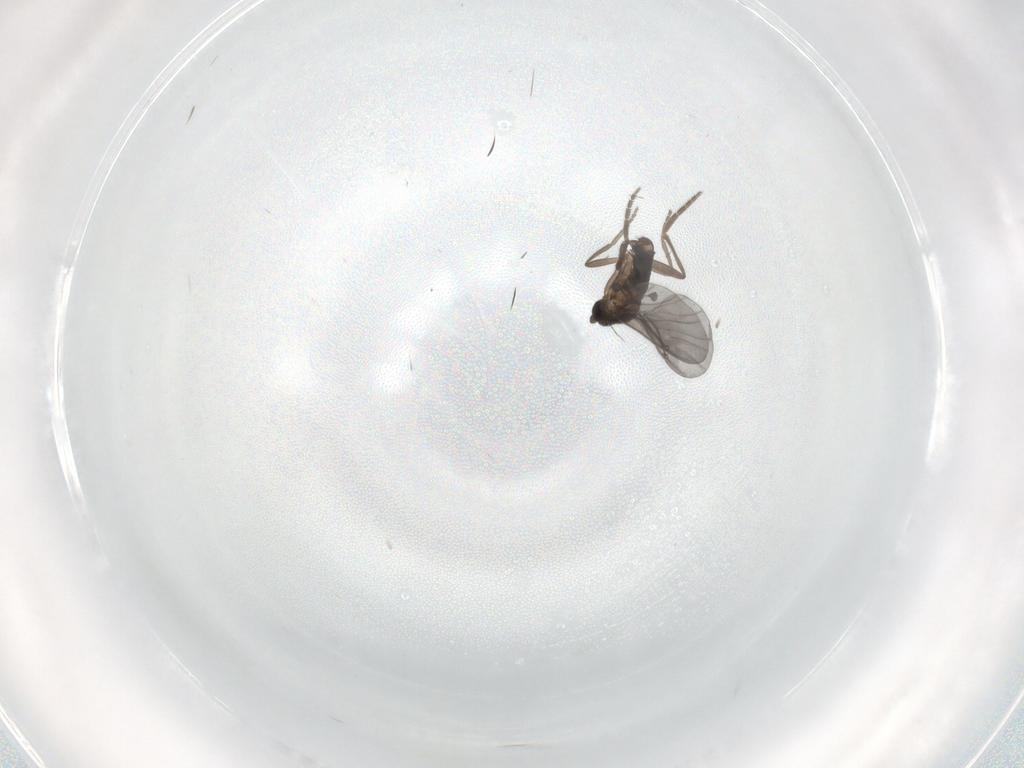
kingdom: Animalia
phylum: Arthropoda
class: Insecta
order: Diptera
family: Phoridae
